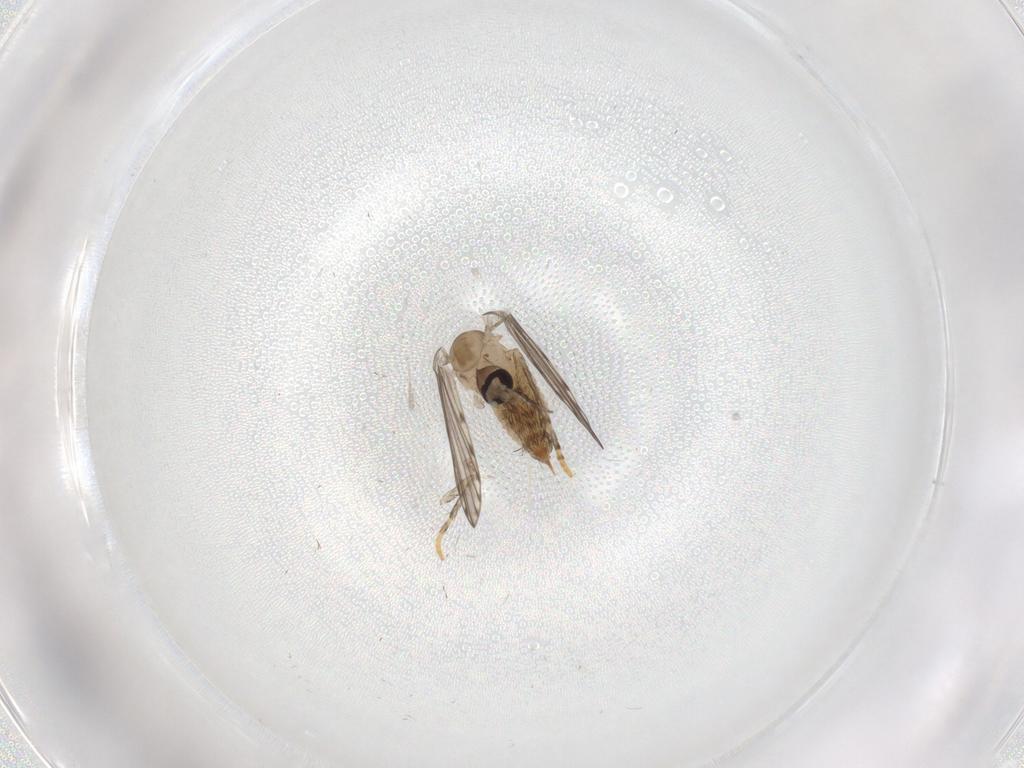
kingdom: Animalia
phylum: Arthropoda
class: Insecta
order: Diptera
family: Psychodidae
